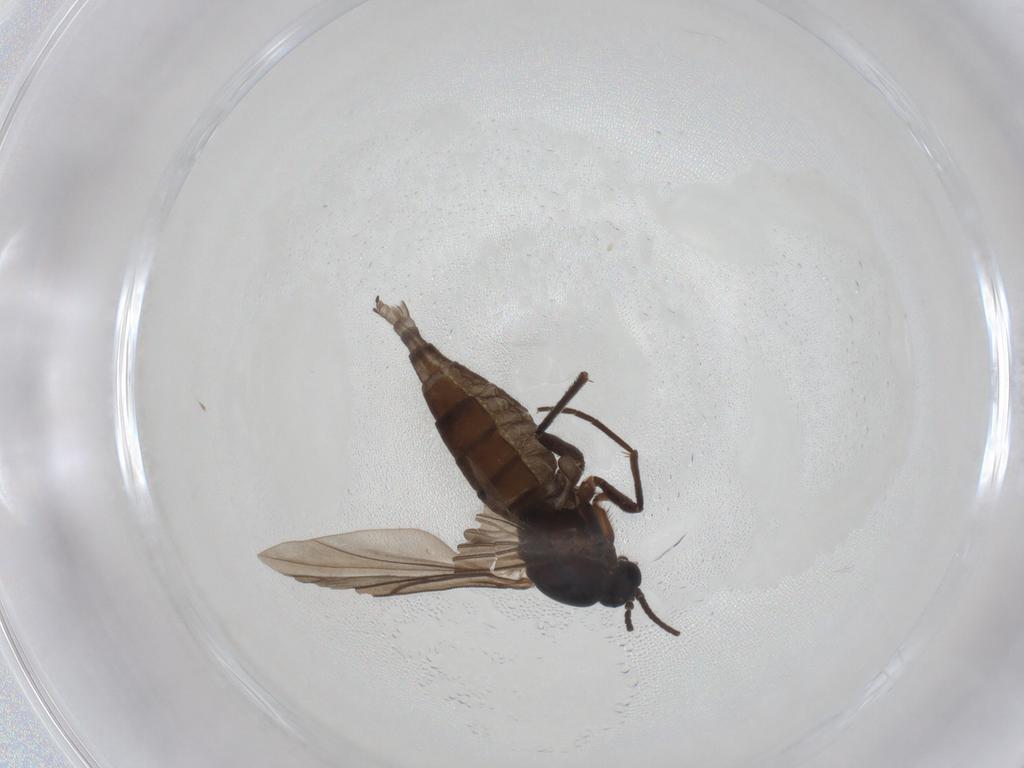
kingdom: Animalia
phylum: Arthropoda
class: Insecta
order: Diptera
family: Sciaridae
